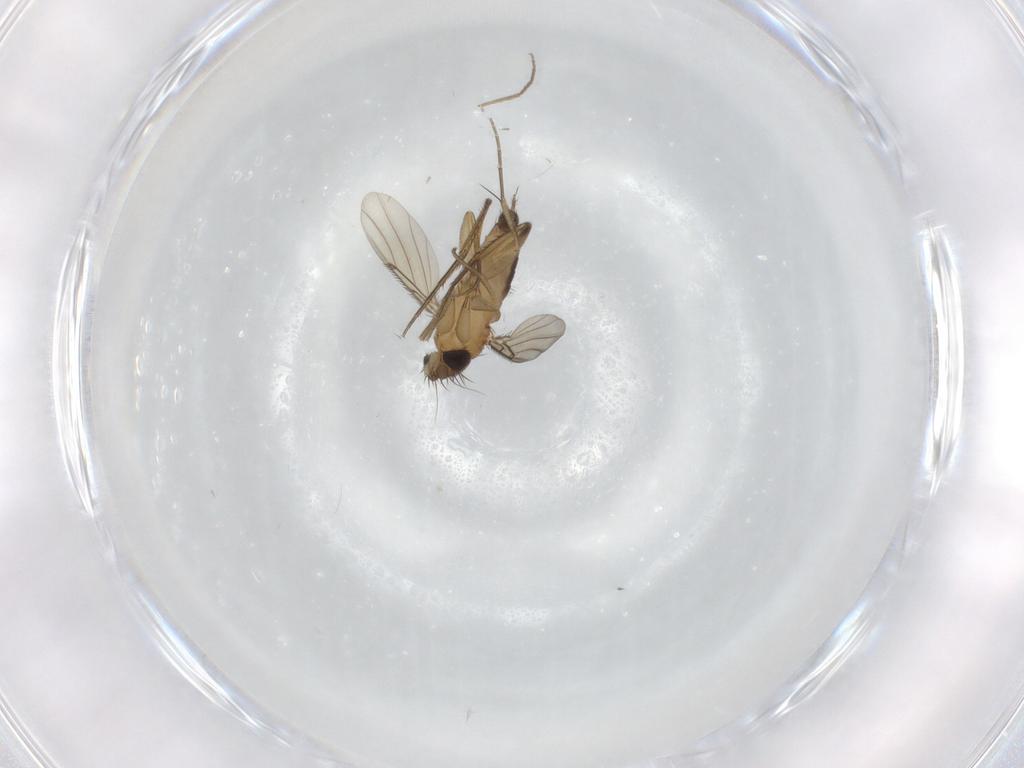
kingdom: Animalia
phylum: Arthropoda
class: Insecta
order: Diptera
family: Phoridae
